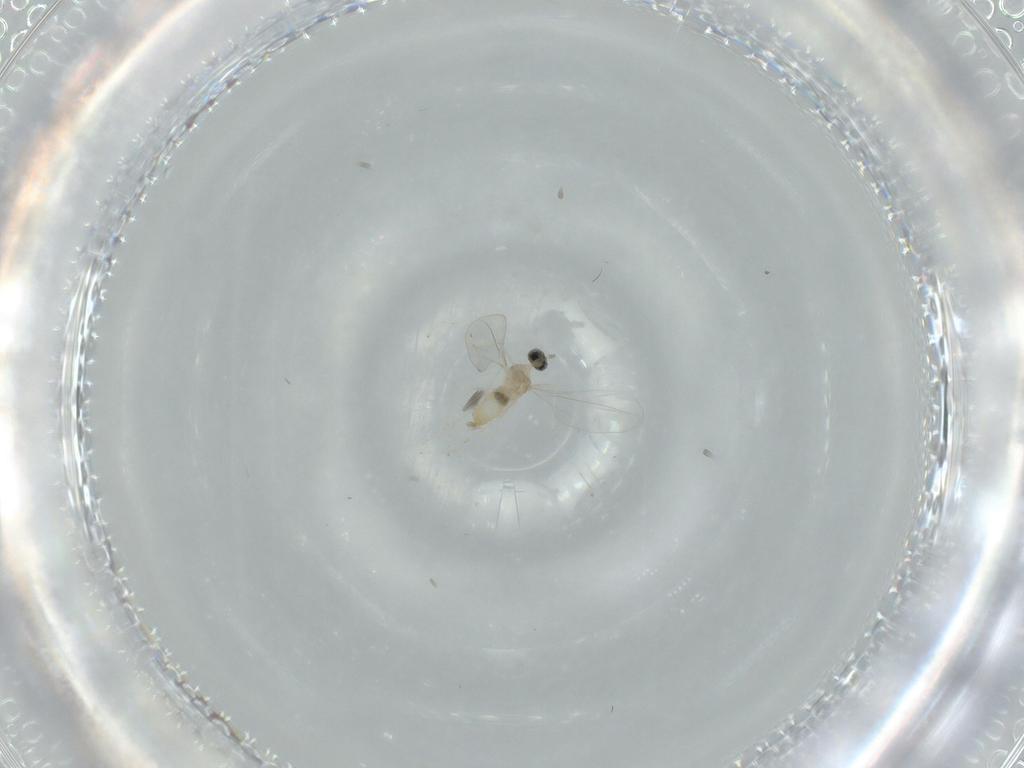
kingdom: Animalia
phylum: Arthropoda
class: Insecta
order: Diptera
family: Cecidomyiidae
